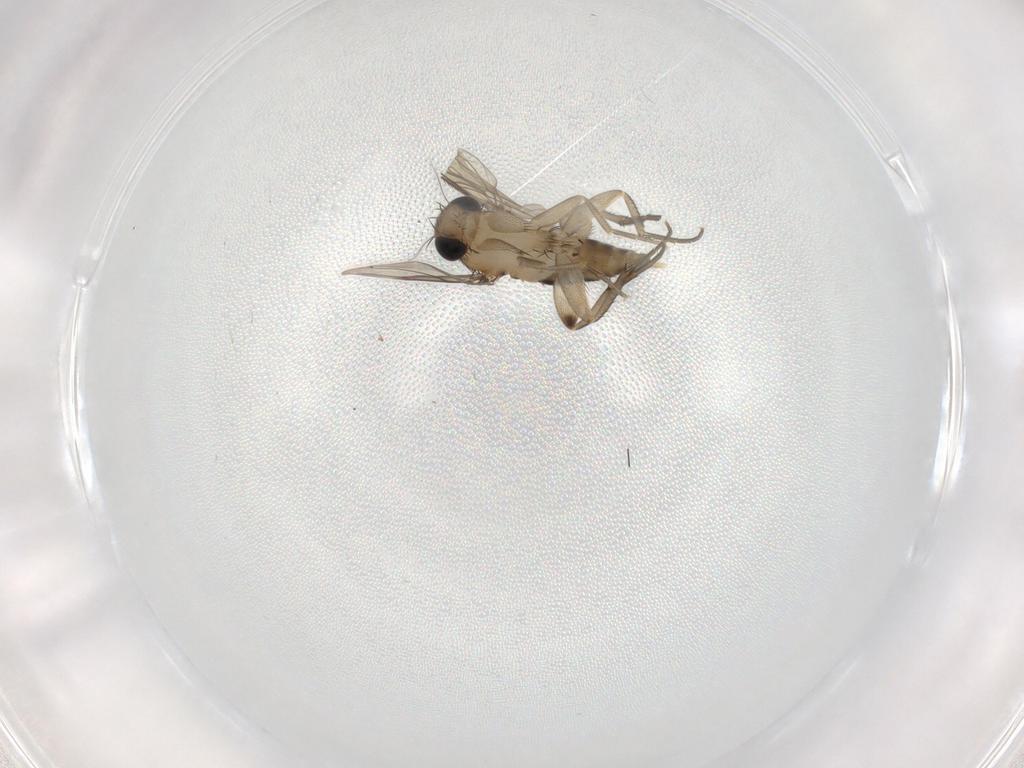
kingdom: Animalia
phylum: Arthropoda
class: Insecta
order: Diptera
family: Phoridae
